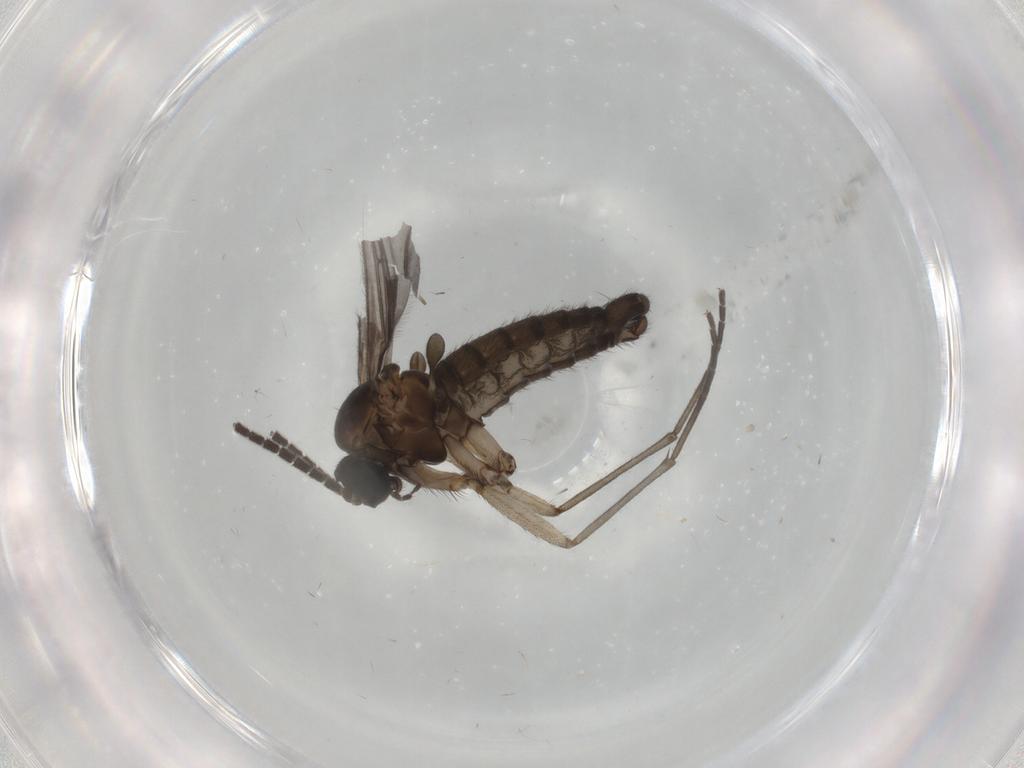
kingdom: Animalia
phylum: Arthropoda
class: Insecta
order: Diptera
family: Sciaridae
